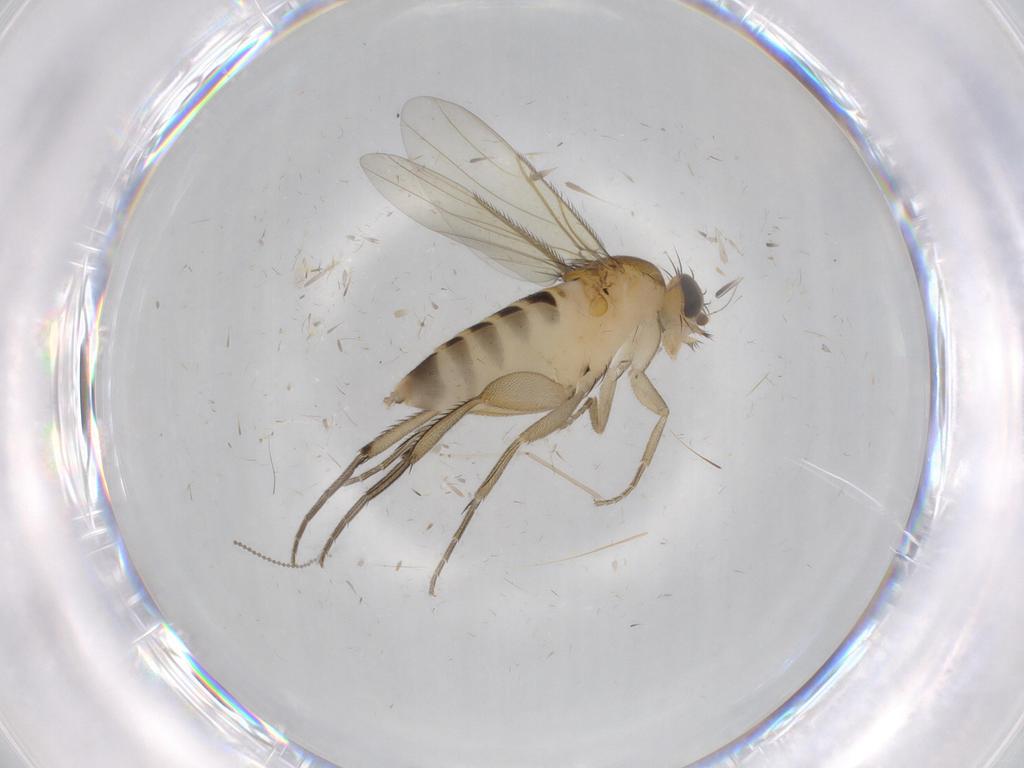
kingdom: Animalia
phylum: Arthropoda
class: Insecta
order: Diptera
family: Phoridae
